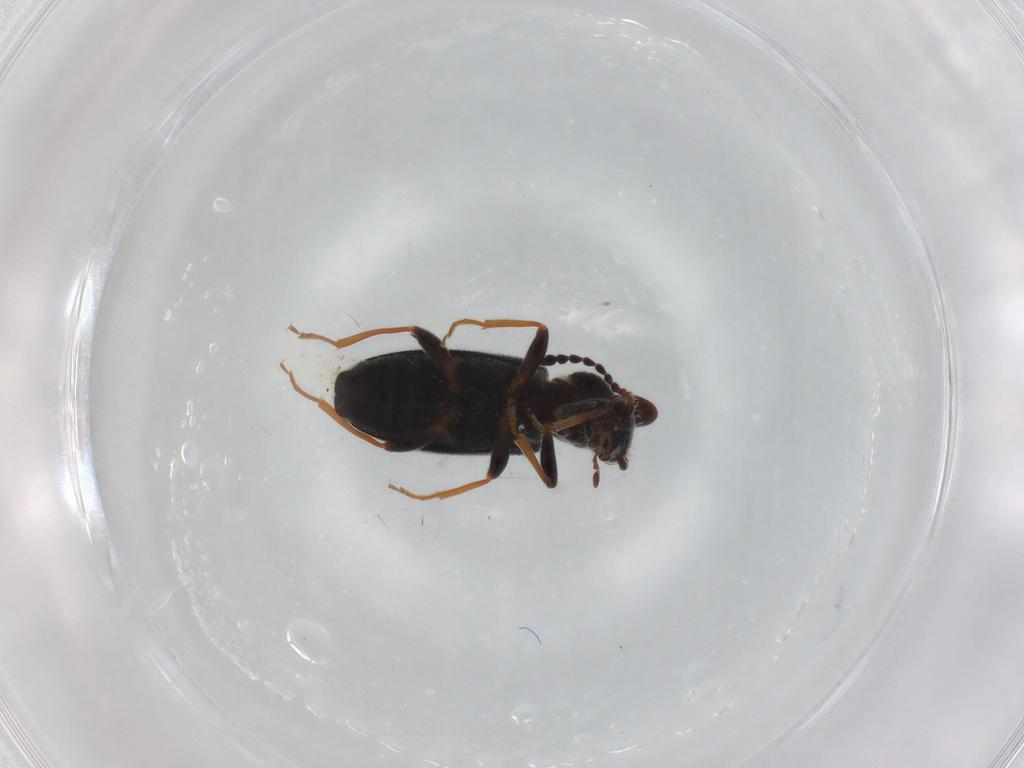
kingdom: Animalia
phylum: Arthropoda
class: Insecta
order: Coleoptera
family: Anthicidae
